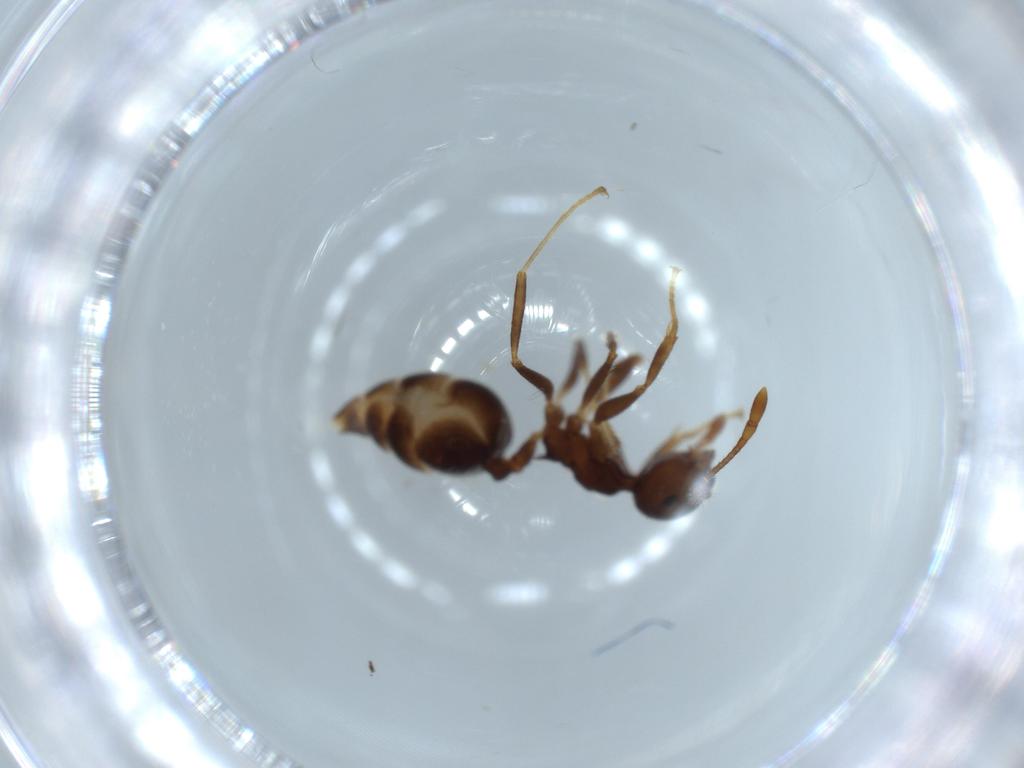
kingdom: Animalia
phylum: Arthropoda
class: Insecta
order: Hymenoptera
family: Formicidae
